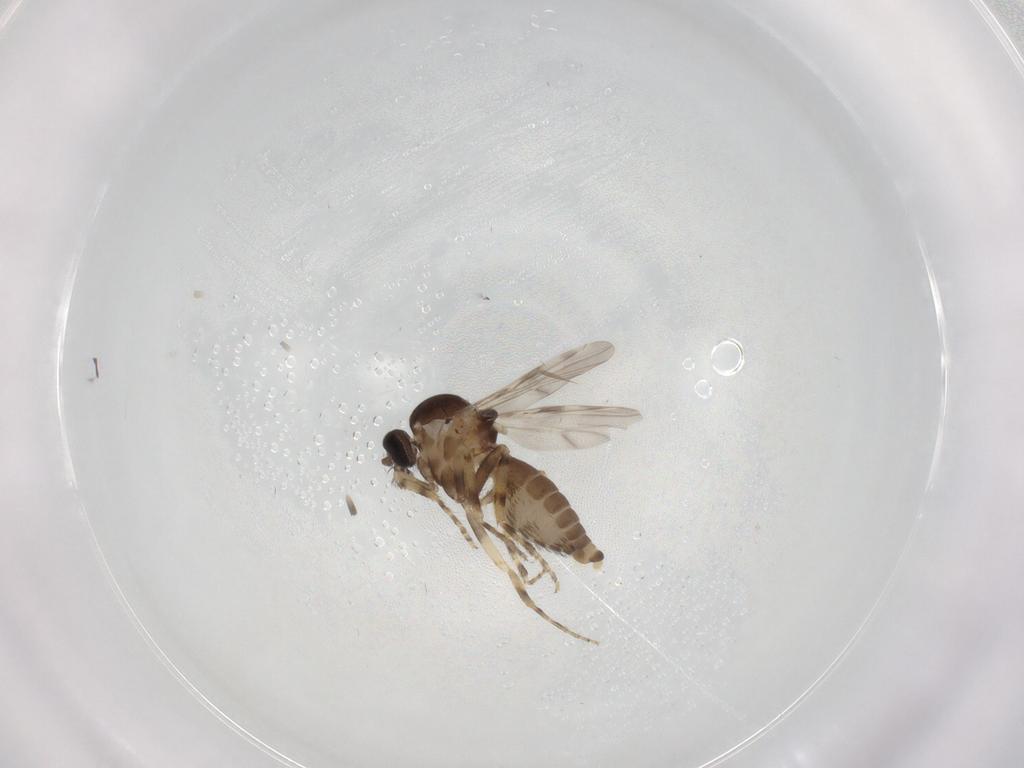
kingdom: Animalia
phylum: Arthropoda
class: Insecta
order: Diptera
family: Ceratopogonidae
